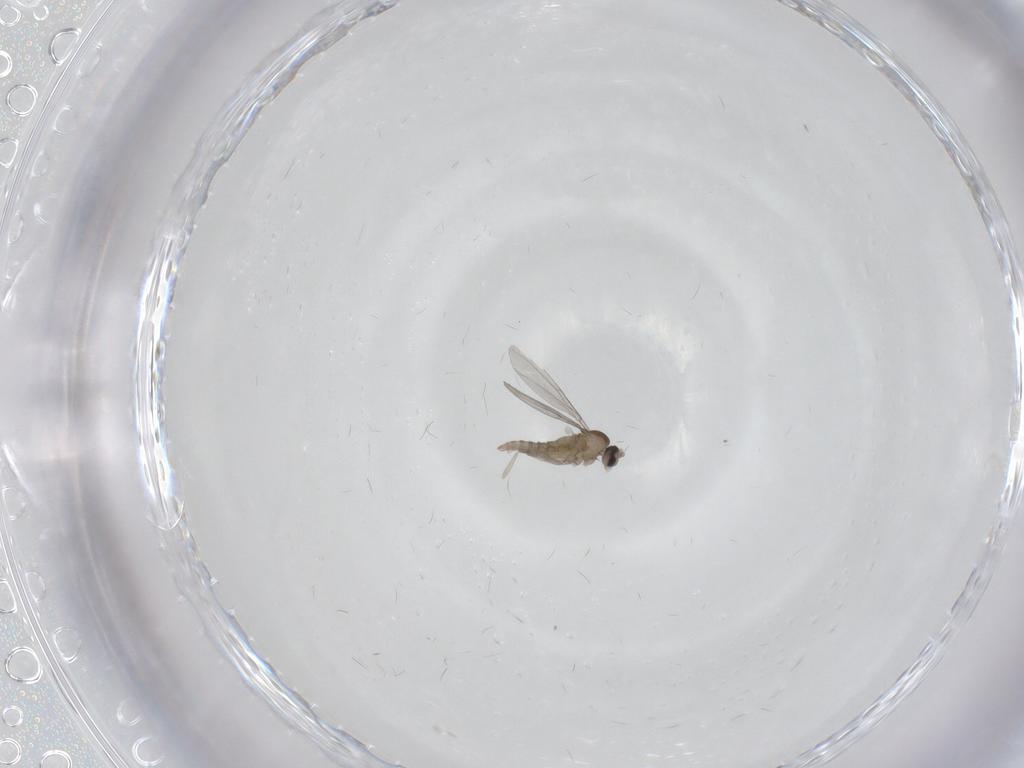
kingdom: Animalia
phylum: Arthropoda
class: Insecta
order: Diptera
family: Cecidomyiidae
